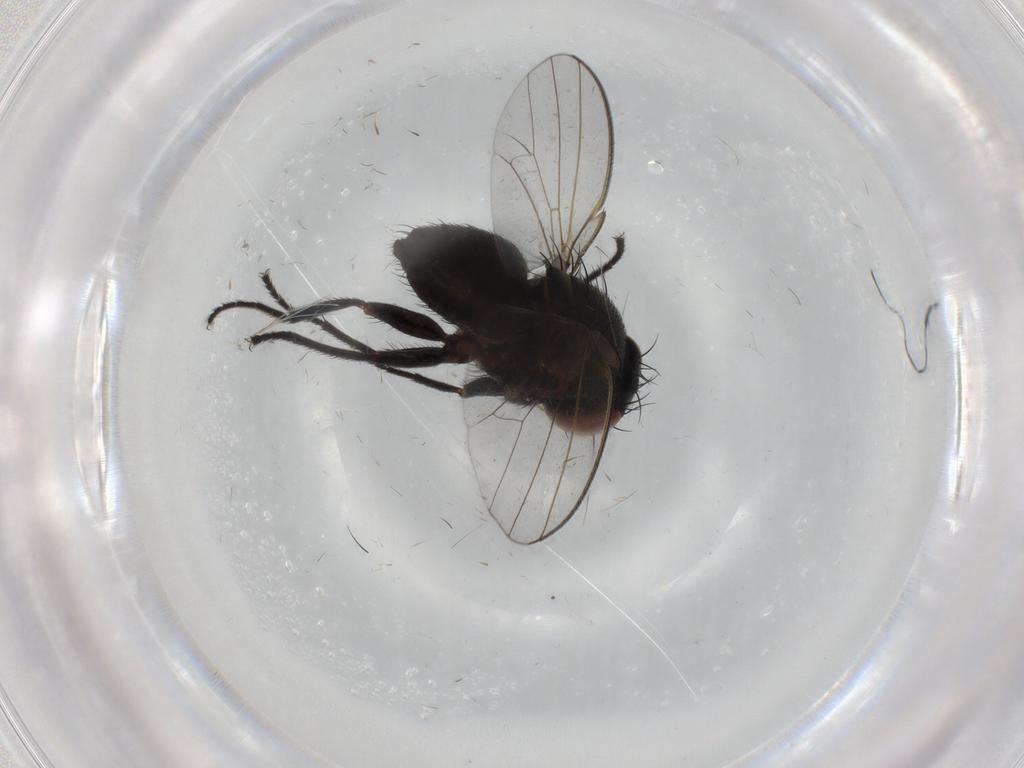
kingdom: Animalia
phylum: Arthropoda
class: Insecta
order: Diptera
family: Milichiidae
